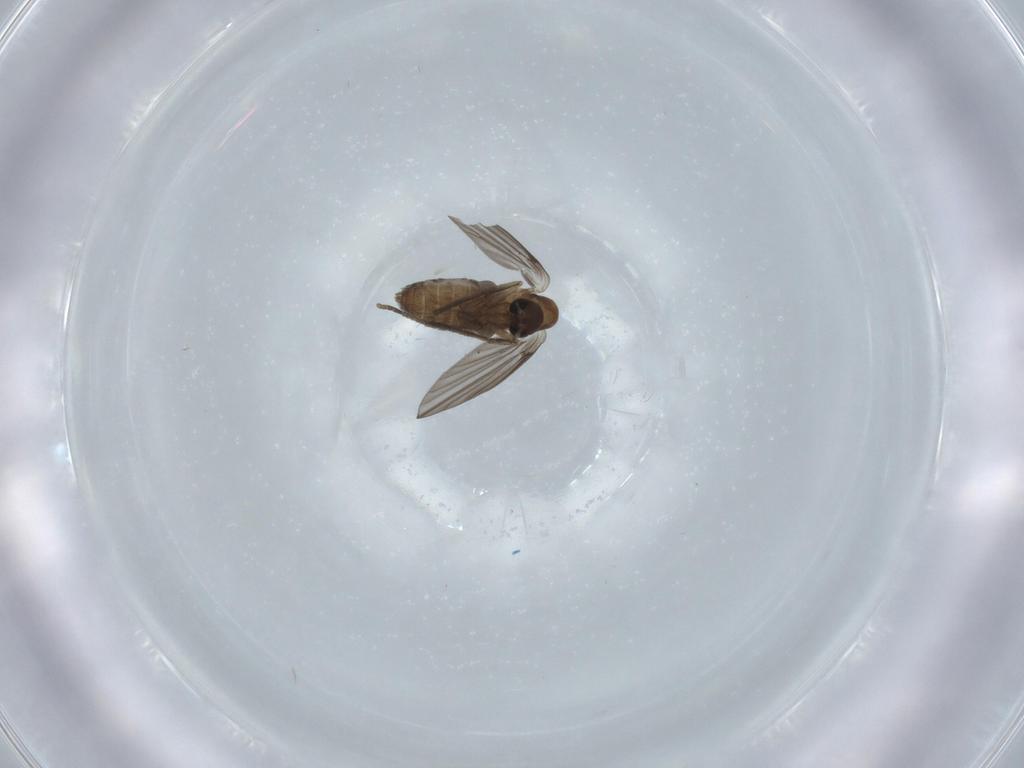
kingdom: Animalia
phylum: Arthropoda
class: Insecta
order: Diptera
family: Psychodidae
